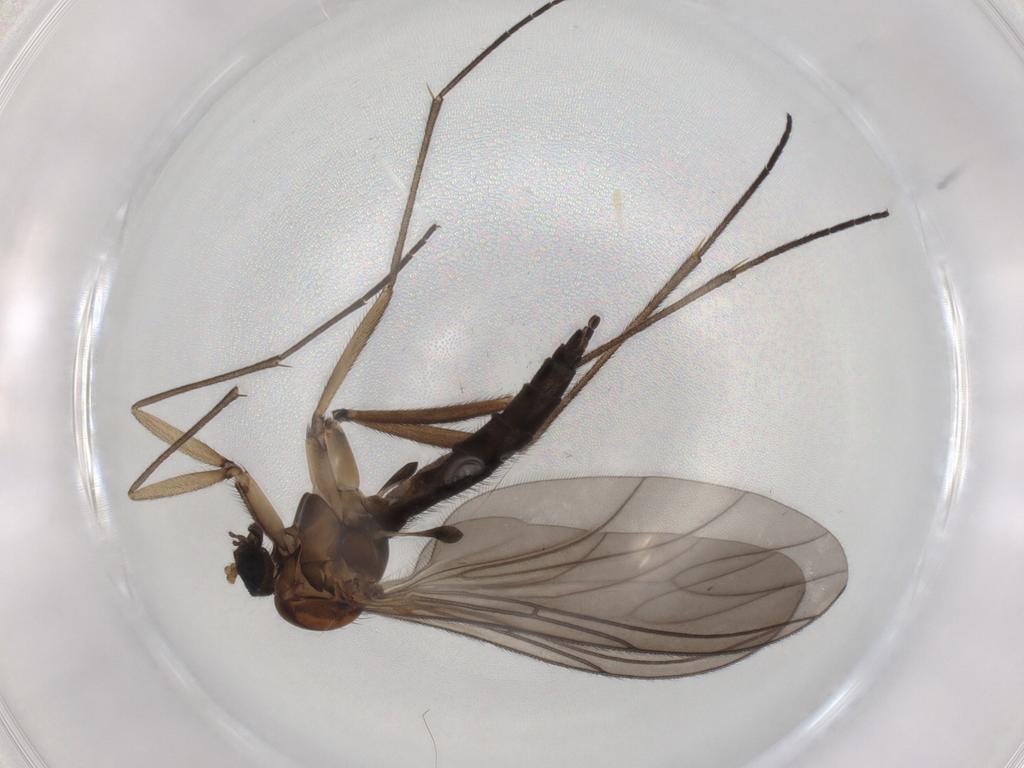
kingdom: Animalia
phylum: Arthropoda
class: Insecta
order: Diptera
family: Sciaridae
